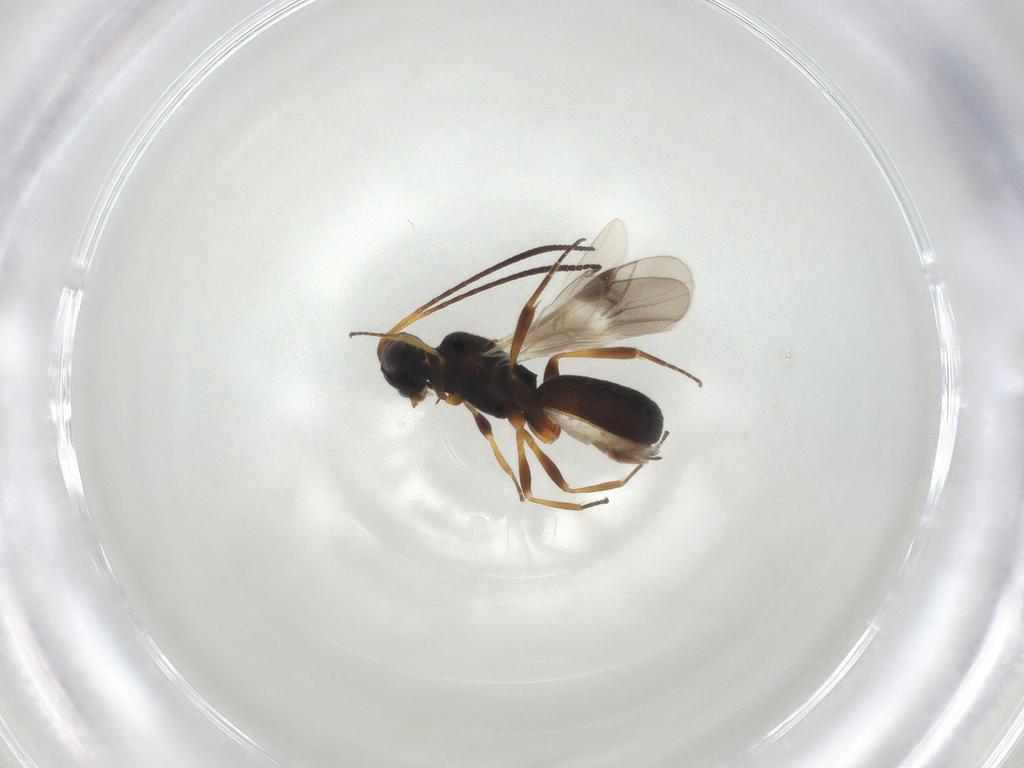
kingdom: Animalia
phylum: Arthropoda
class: Insecta
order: Hymenoptera
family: Braconidae
